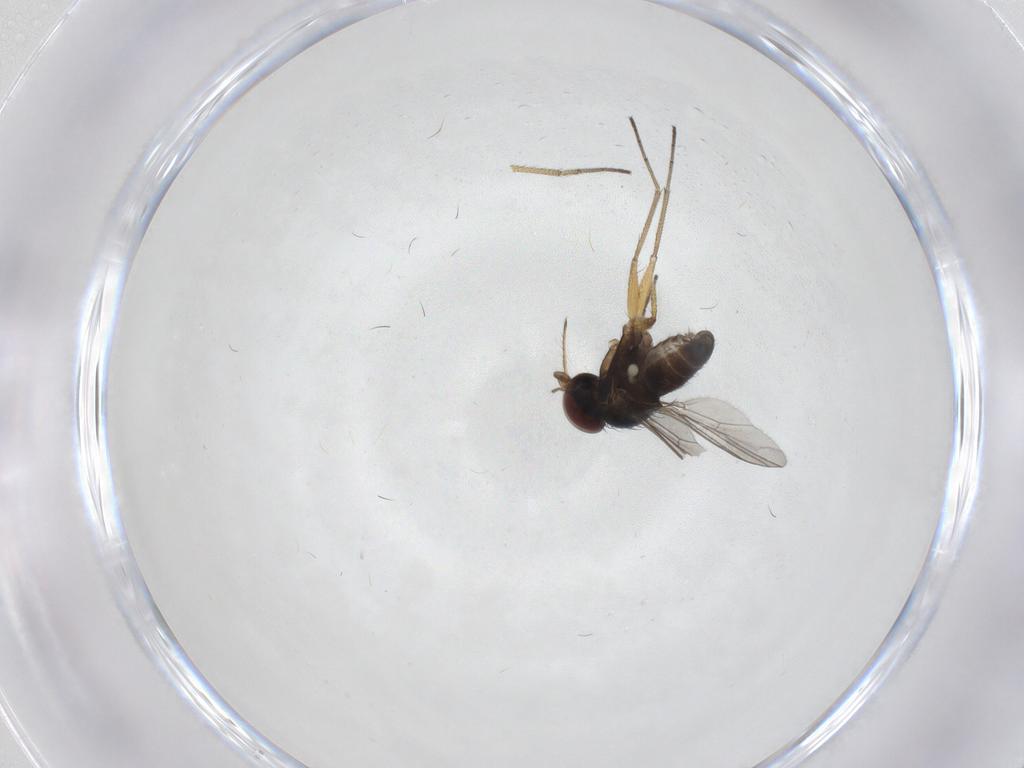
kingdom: Animalia
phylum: Arthropoda
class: Insecta
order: Diptera
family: Dolichopodidae
